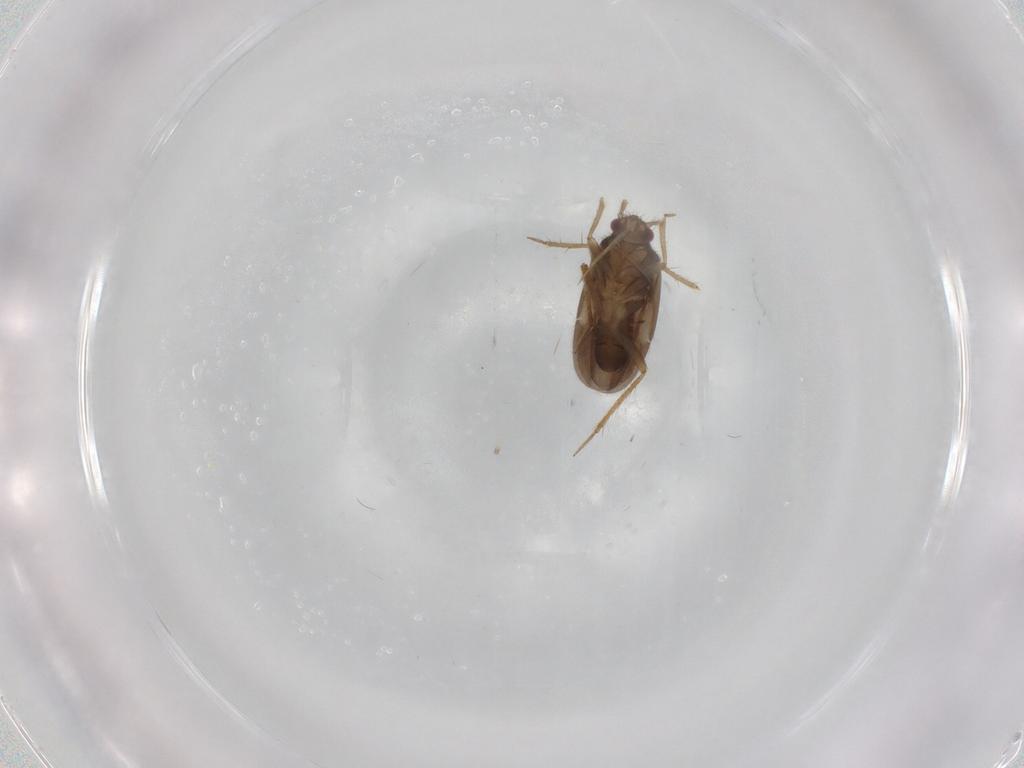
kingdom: Animalia
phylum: Arthropoda
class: Insecta
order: Hemiptera
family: Ceratocombidae
